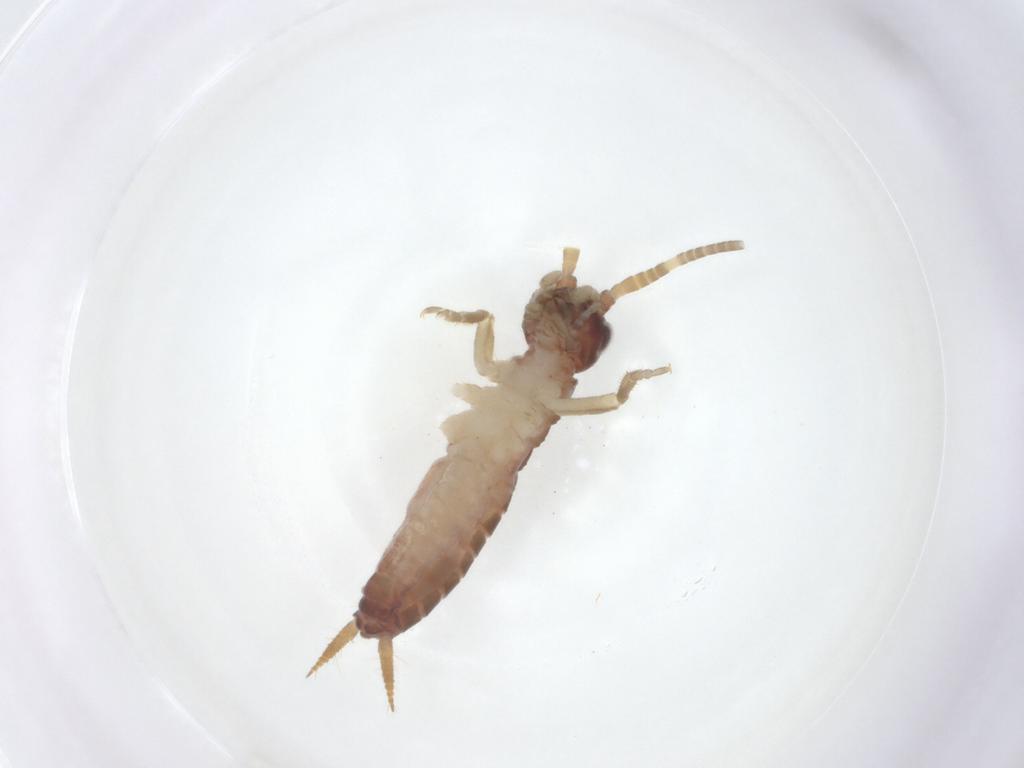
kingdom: Animalia
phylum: Arthropoda
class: Insecta
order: Orthoptera
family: Gryllidae
